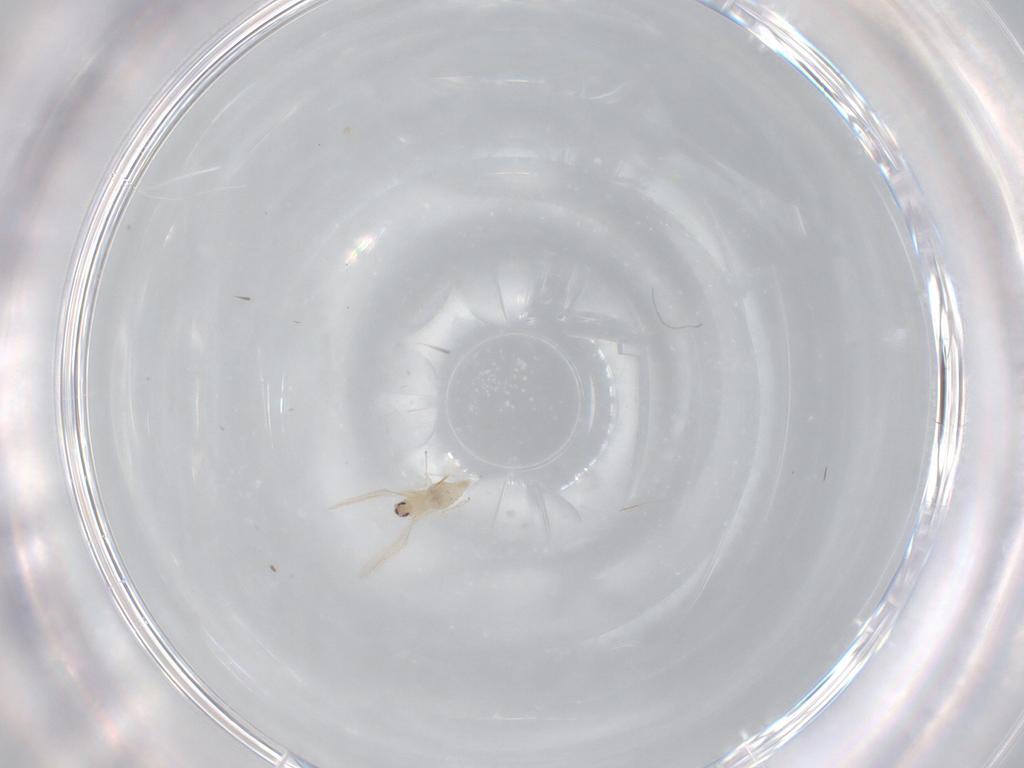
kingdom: Animalia
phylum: Arthropoda
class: Insecta
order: Diptera
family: Cecidomyiidae
